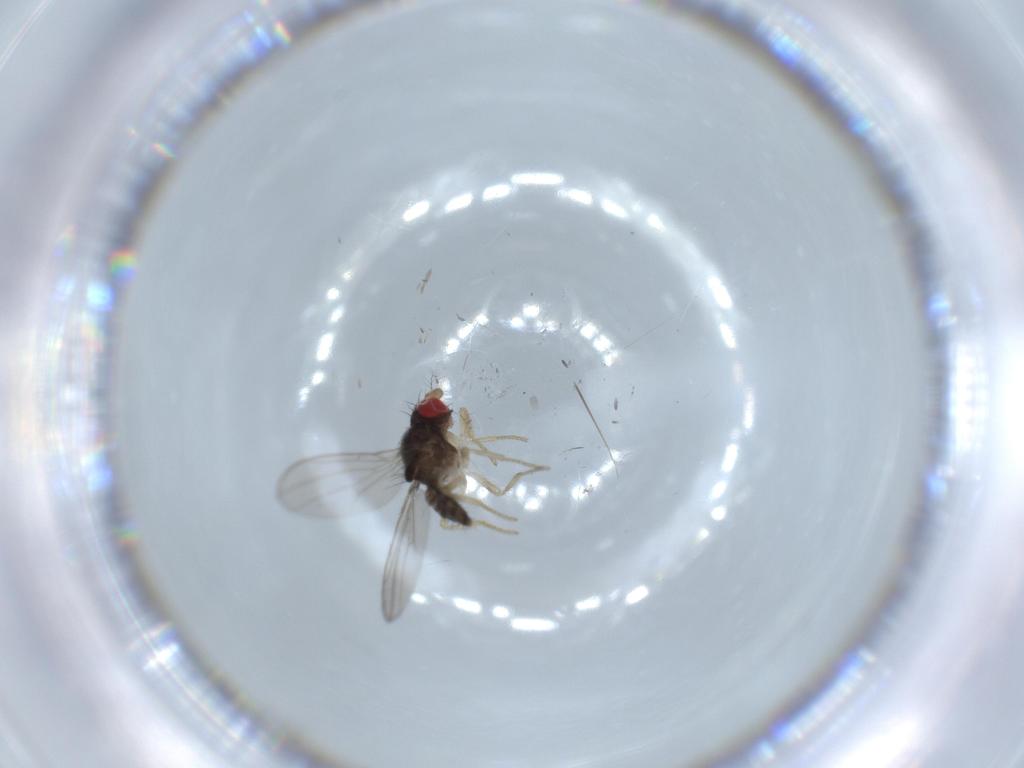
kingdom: Animalia
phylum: Arthropoda
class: Insecta
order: Diptera
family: Drosophilidae
